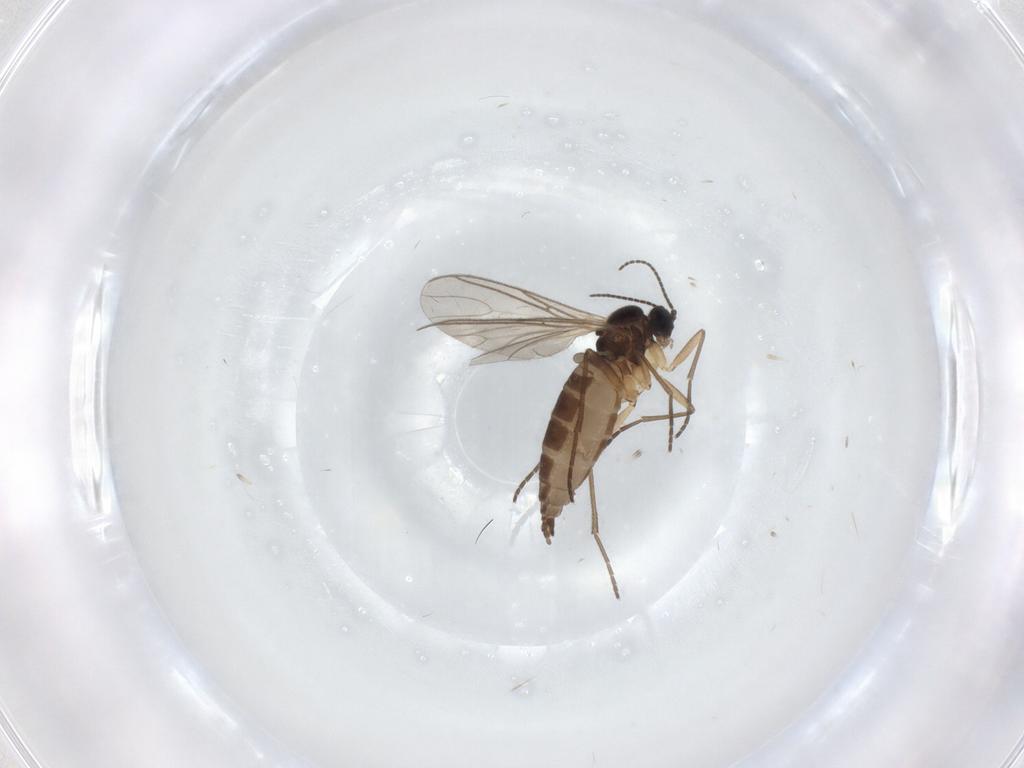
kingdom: Animalia
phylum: Arthropoda
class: Insecta
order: Diptera
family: Sciaridae
